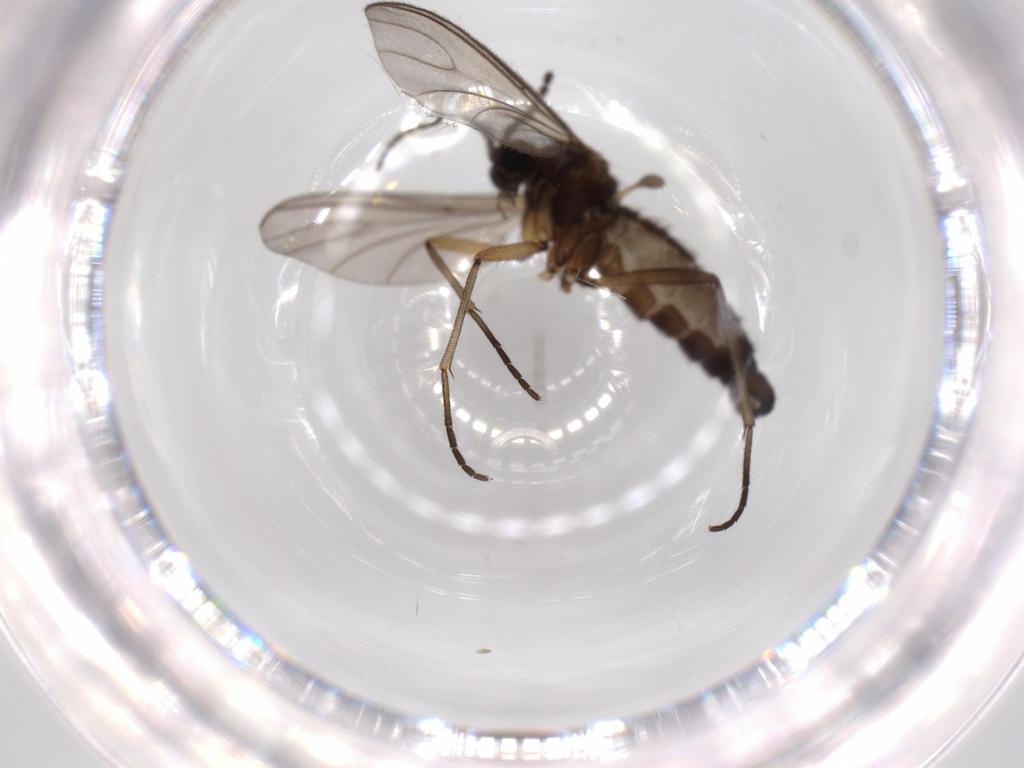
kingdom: Animalia
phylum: Arthropoda
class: Insecta
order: Diptera
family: Sciaridae
